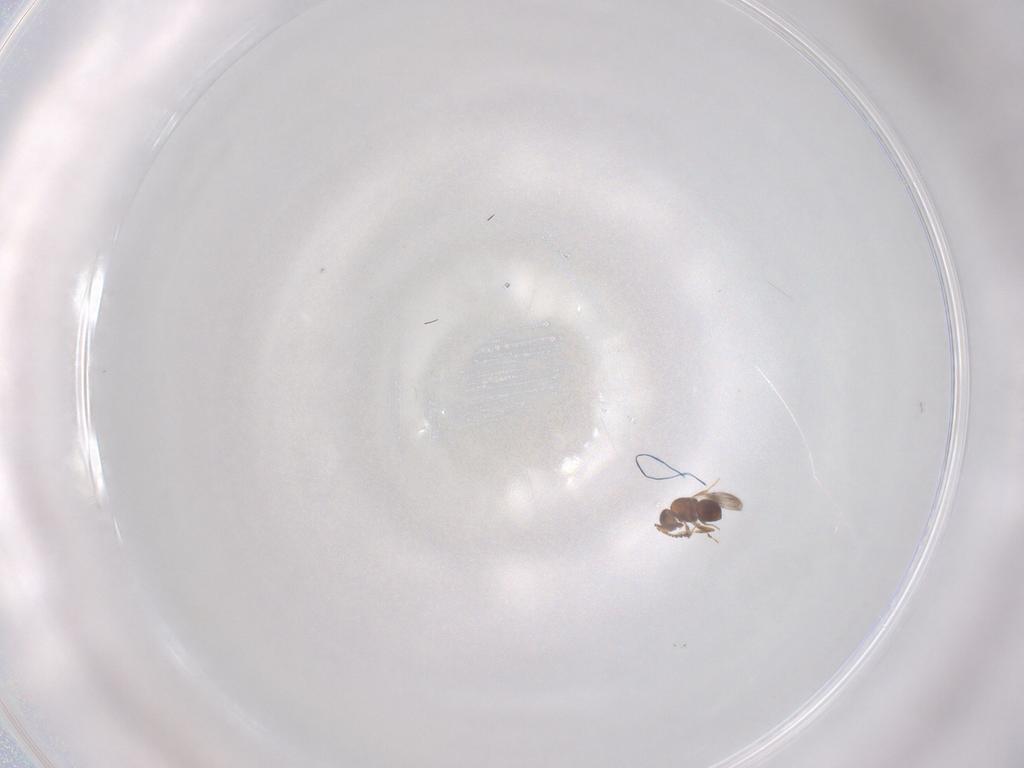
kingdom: Animalia
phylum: Arthropoda
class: Insecta
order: Hymenoptera
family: Ceraphronidae
